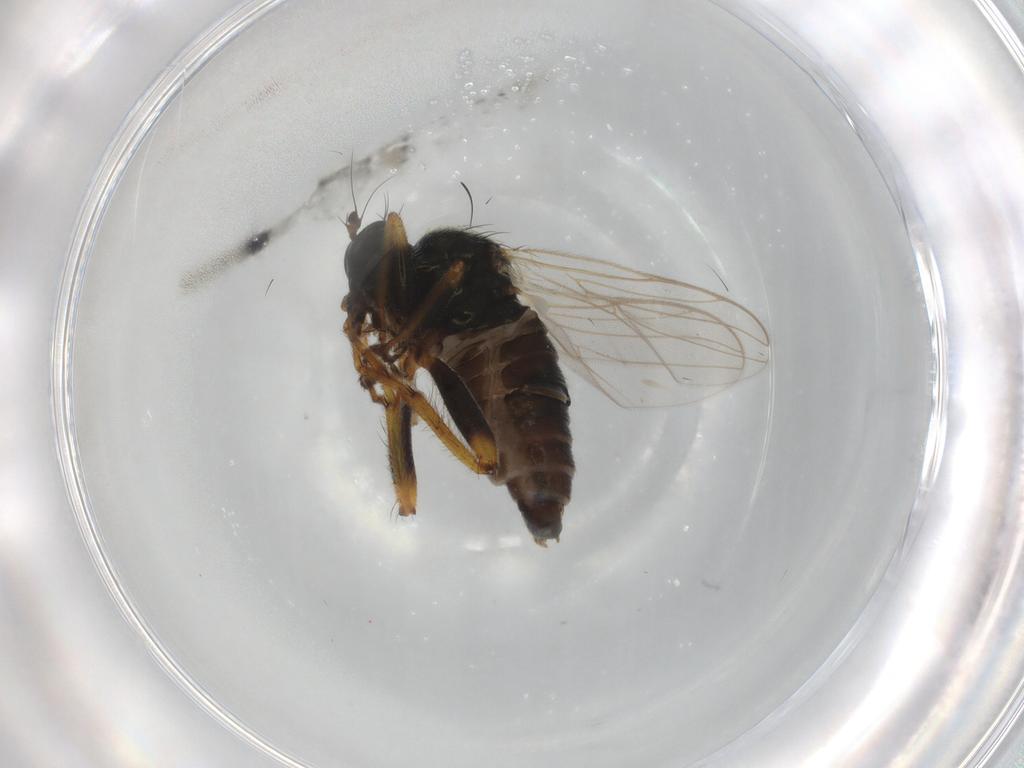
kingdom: Animalia
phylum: Arthropoda
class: Insecta
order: Diptera
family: Hybotidae
